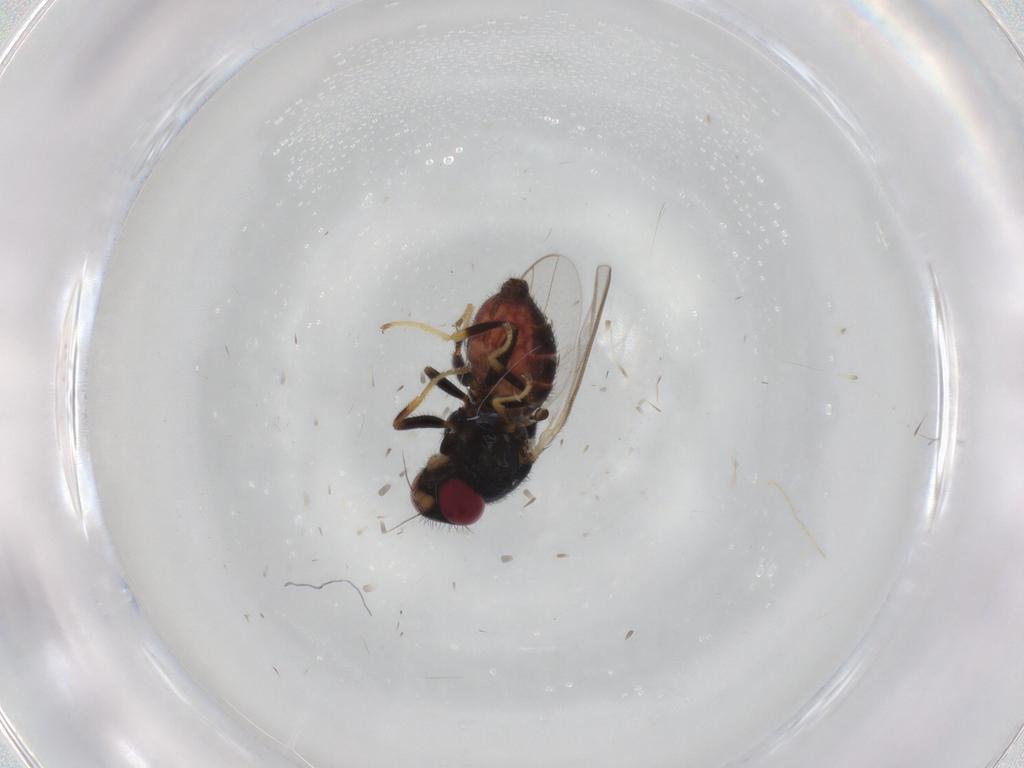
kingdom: Animalia
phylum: Arthropoda
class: Insecta
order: Diptera
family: Chloropidae
